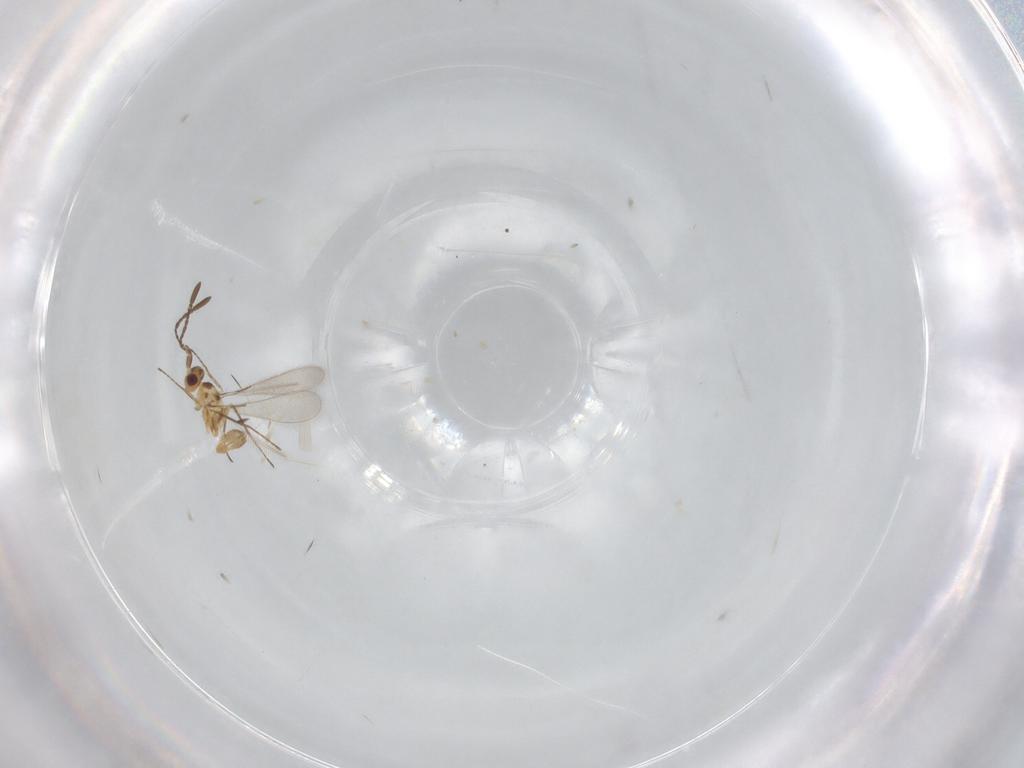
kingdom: Animalia
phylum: Arthropoda
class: Insecta
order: Hymenoptera
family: Mymaridae
